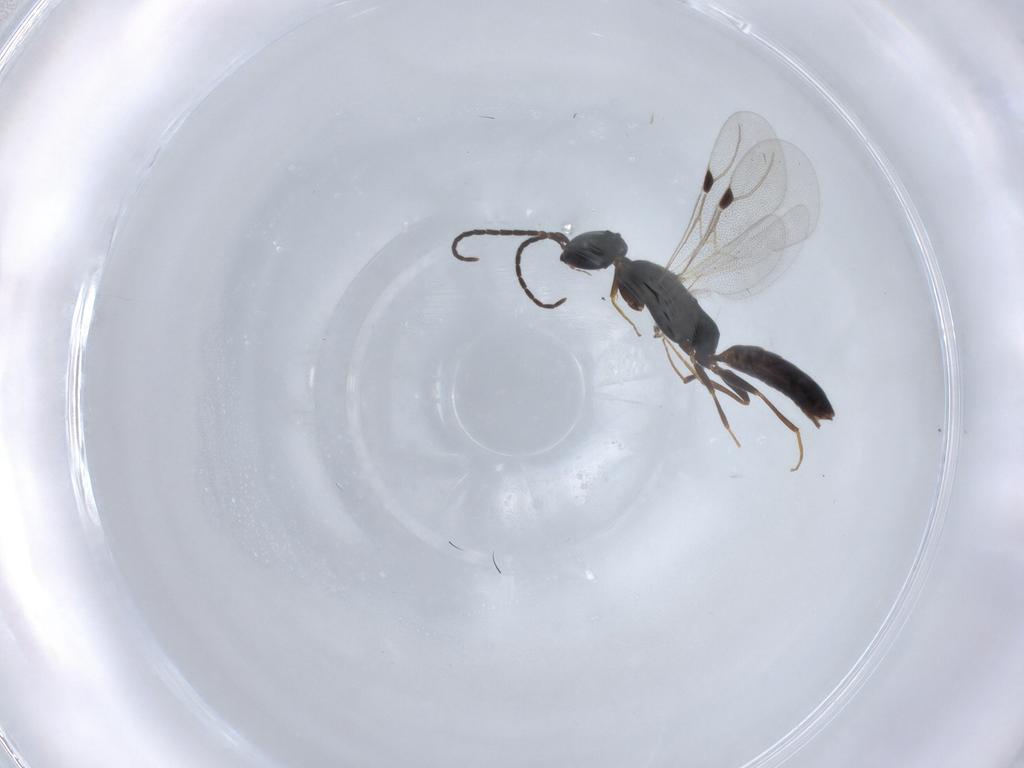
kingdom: Animalia
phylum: Arthropoda
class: Insecta
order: Hymenoptera
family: Bethylidae
